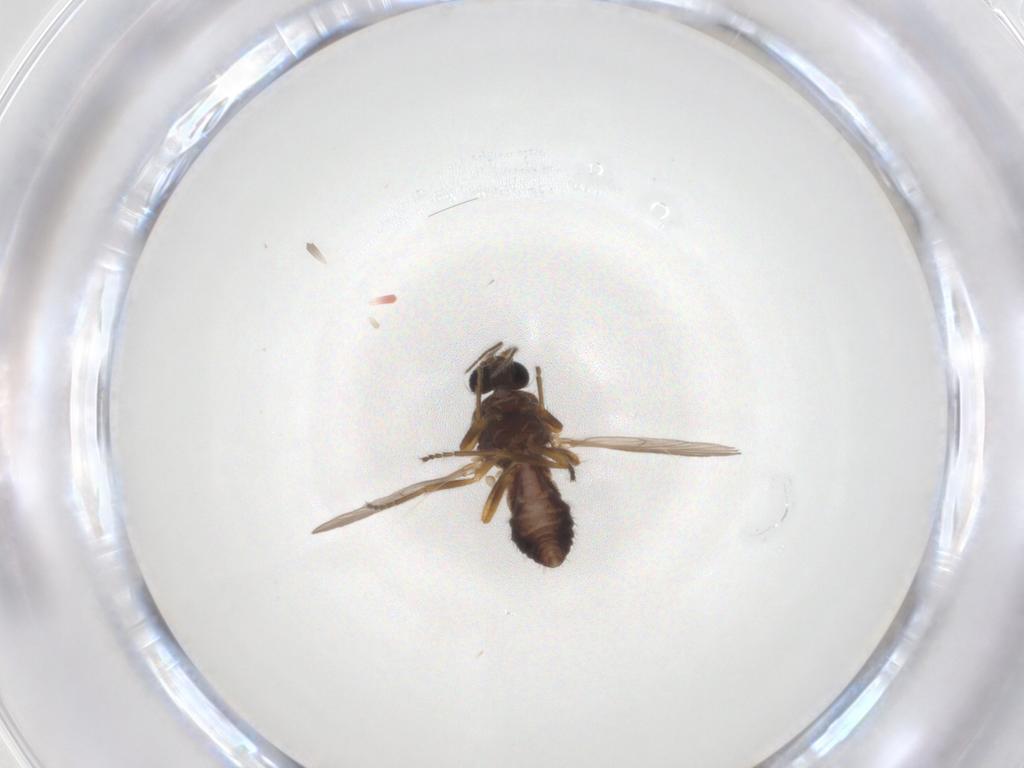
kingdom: Animalia
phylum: Arthropoda
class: Insecta
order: Diptera
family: Ceratopogonidae
